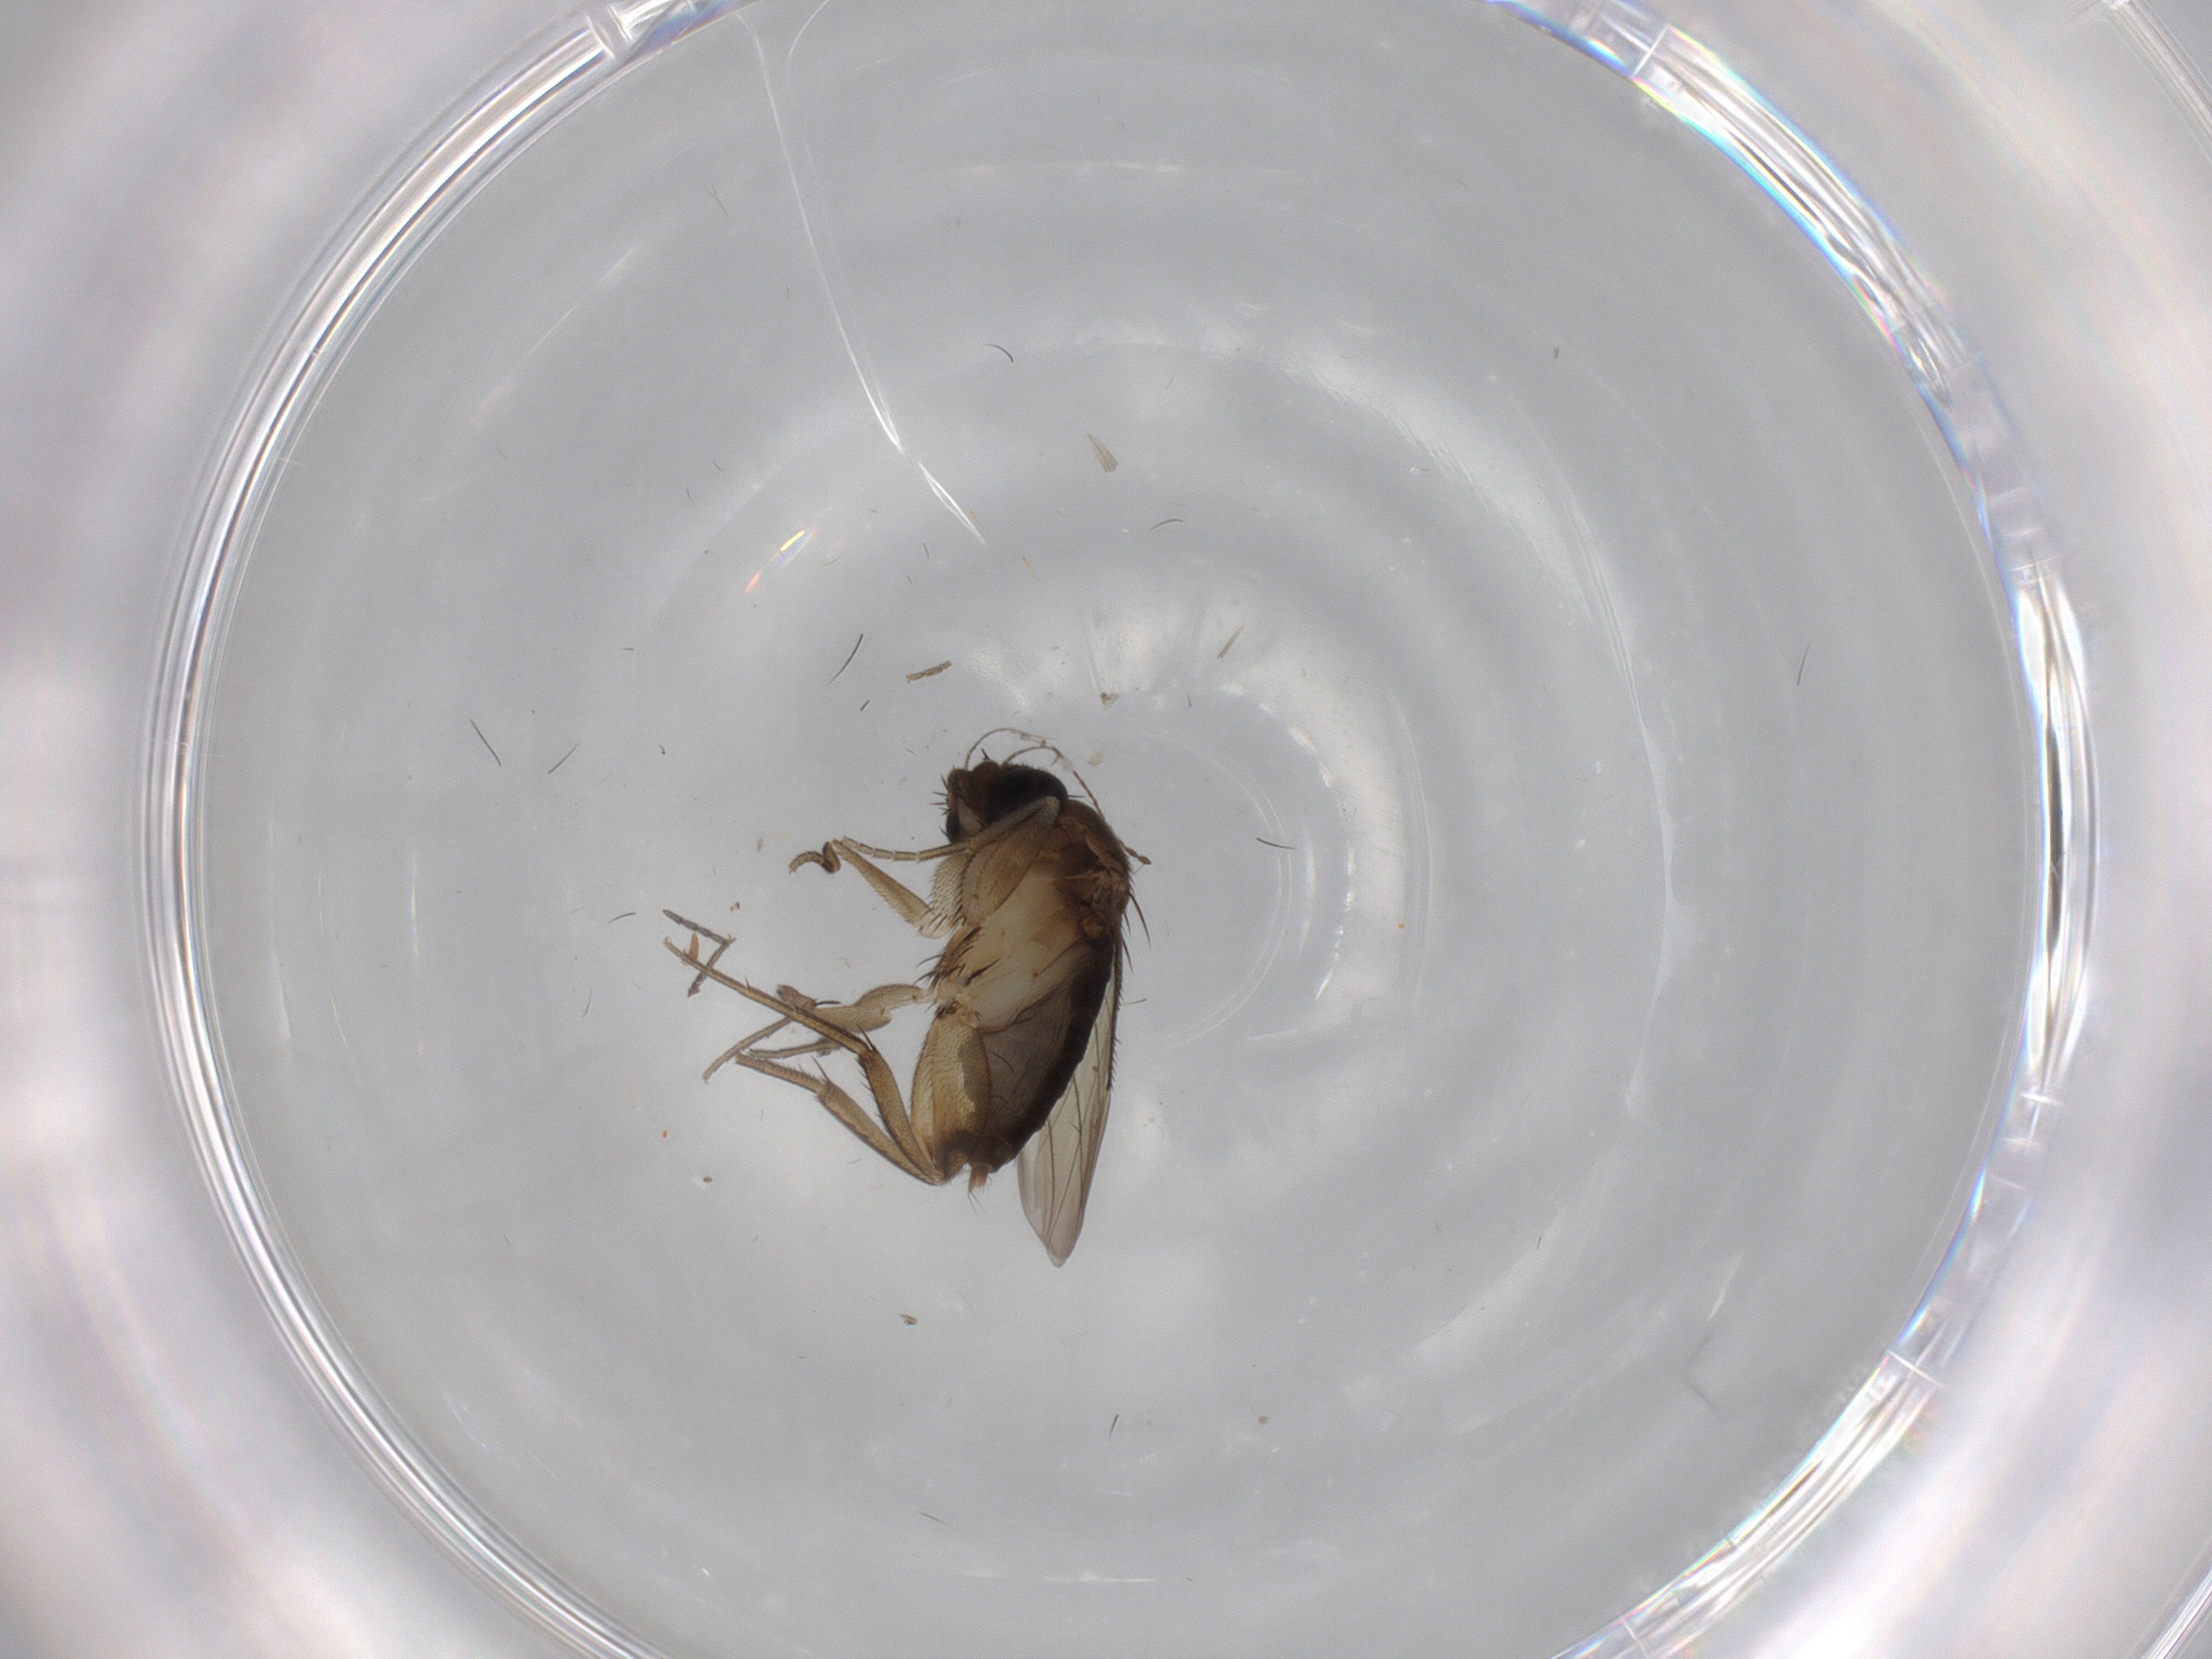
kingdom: Animalia
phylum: Arthropoda
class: Insecta
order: Diptera
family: Phoridae
